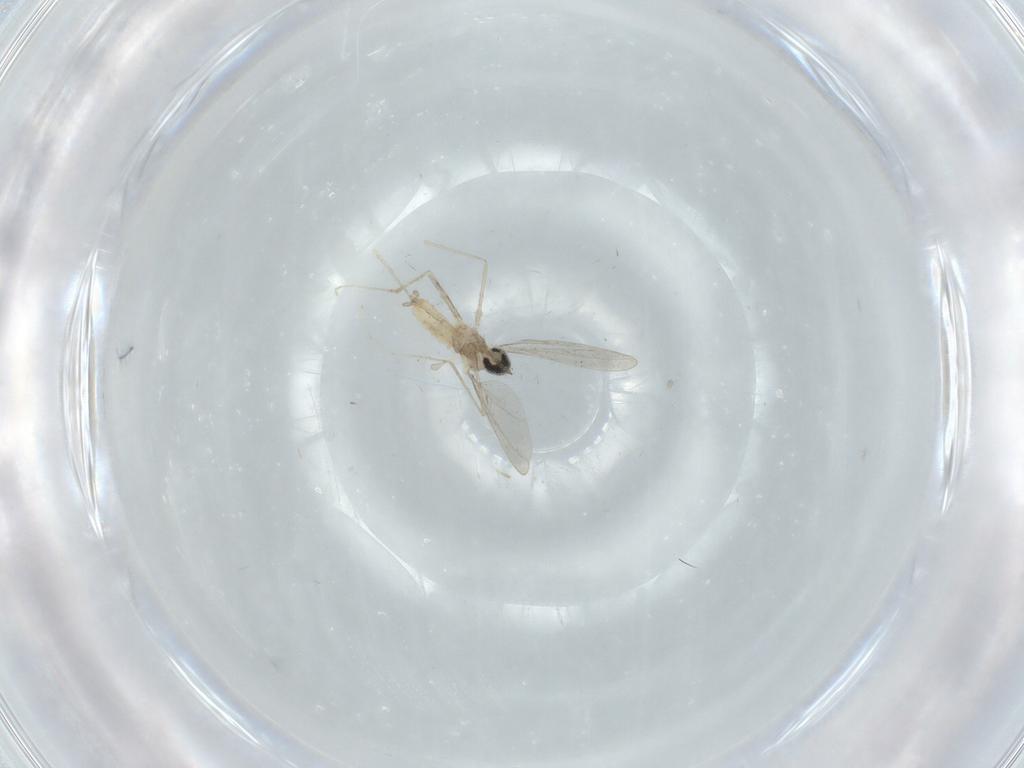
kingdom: Animalia
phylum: Arthropoda
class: Insecta
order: Diptera
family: Cecidomyiidae
